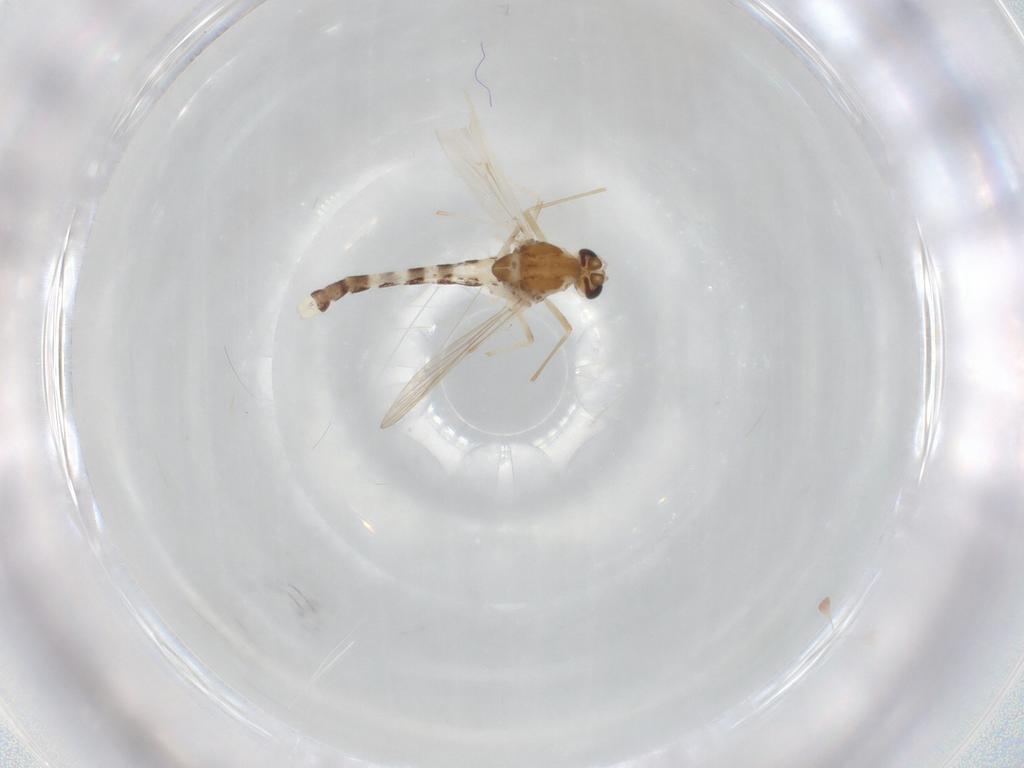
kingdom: Animalia
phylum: Arthropoda
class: Insecta
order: Diptera
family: Chironomidae
